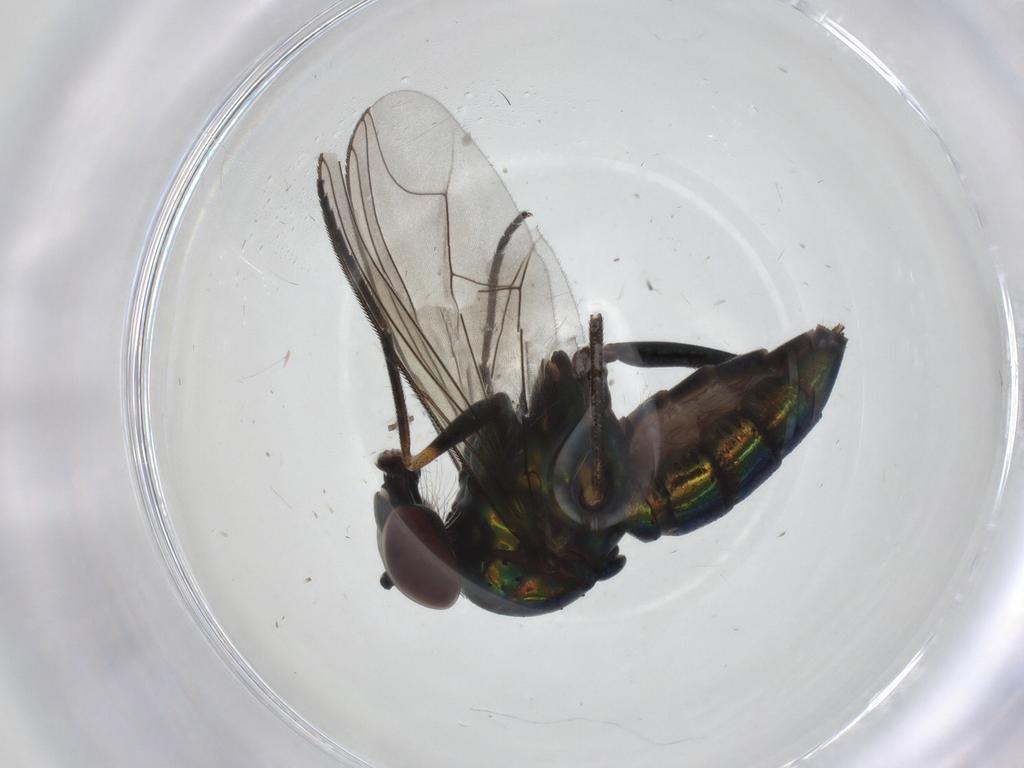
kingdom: Animalia
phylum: Arthropoda
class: Insecta
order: Diptera
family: Dolichopodidae
